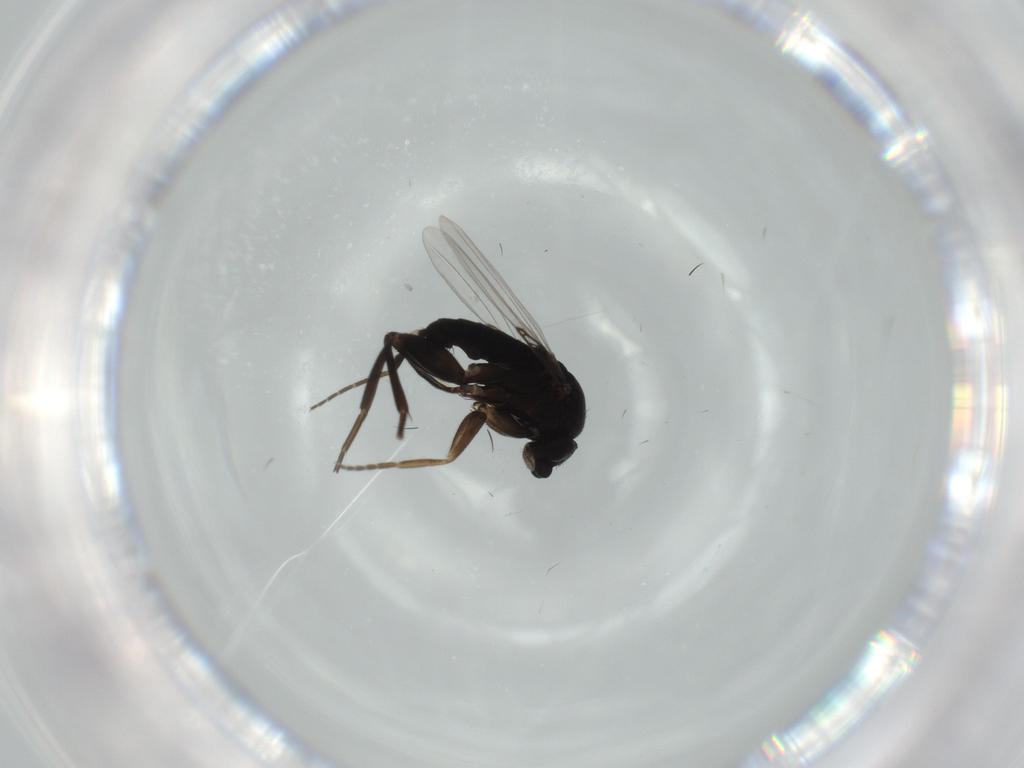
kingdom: Animalia
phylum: Arthropoda
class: Insecta
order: Diptera
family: Phoridae
